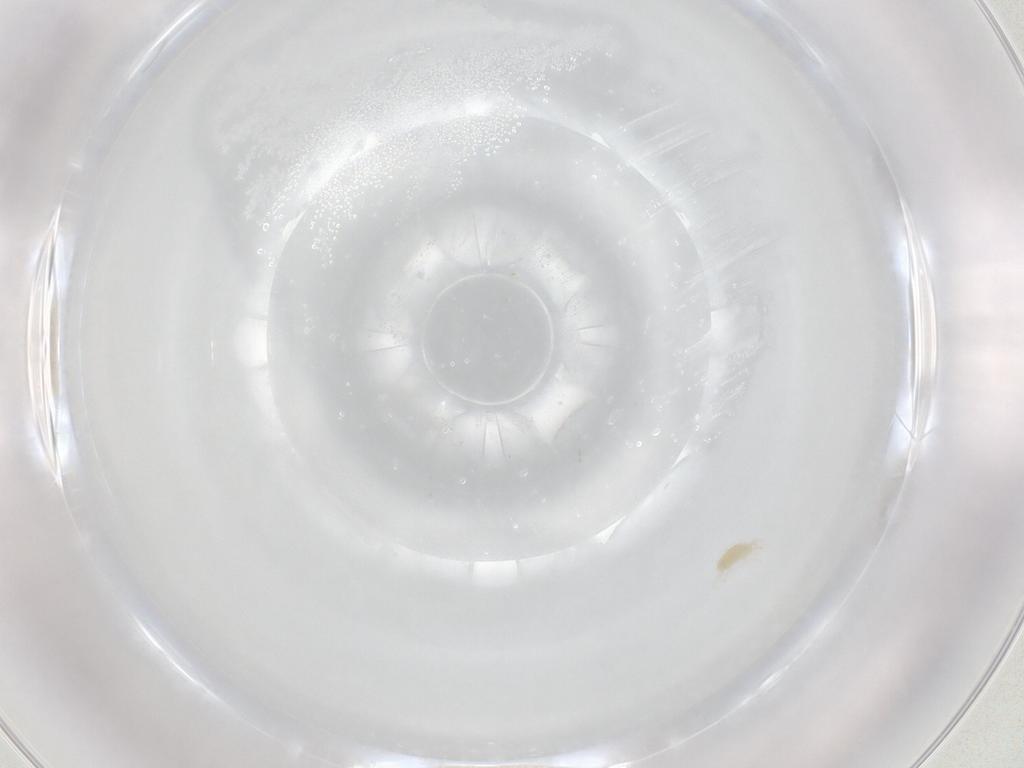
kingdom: Animalia
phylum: Arthropoda
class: Arachnida
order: Trombidiformes
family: Stigmaeidae
